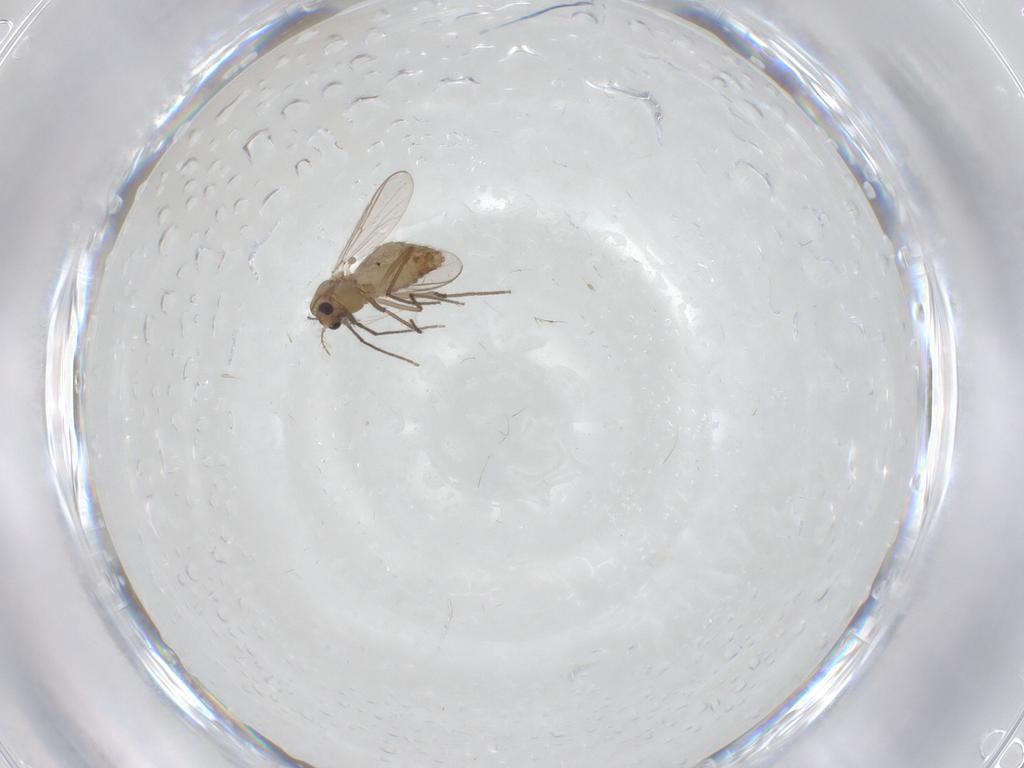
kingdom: Animalia
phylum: Arthropoda
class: Insecta
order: Diptera
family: Chironomidae
